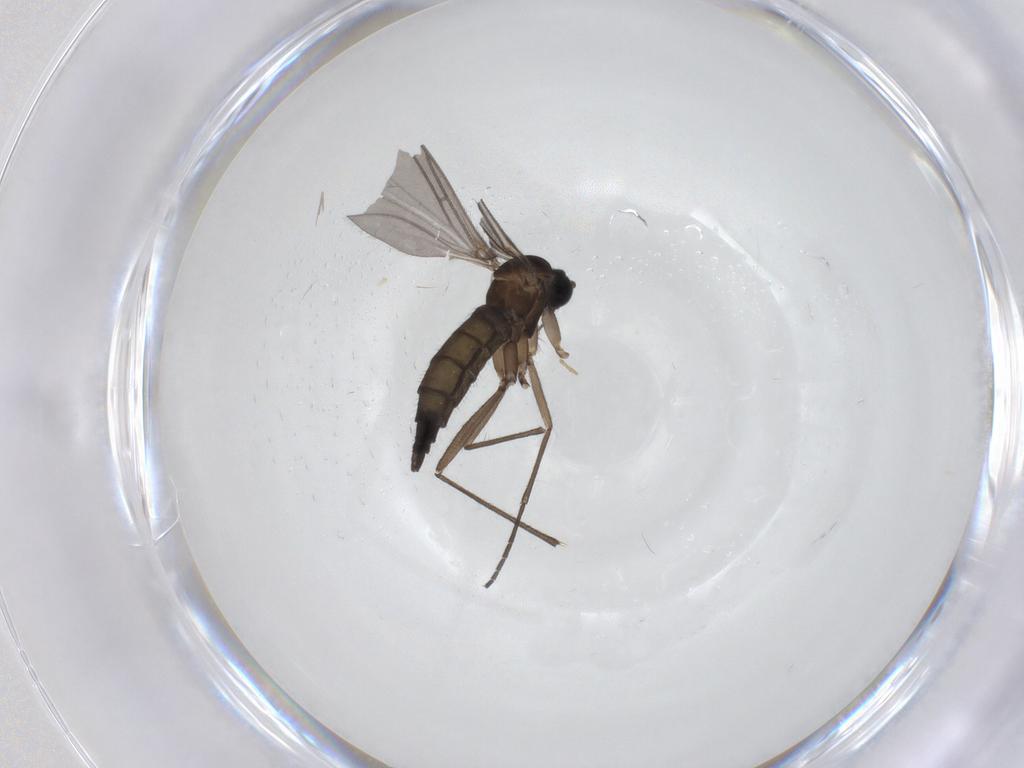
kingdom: Animalia
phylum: Arthropoda
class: Insecta
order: Diptera
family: Sciaridae
